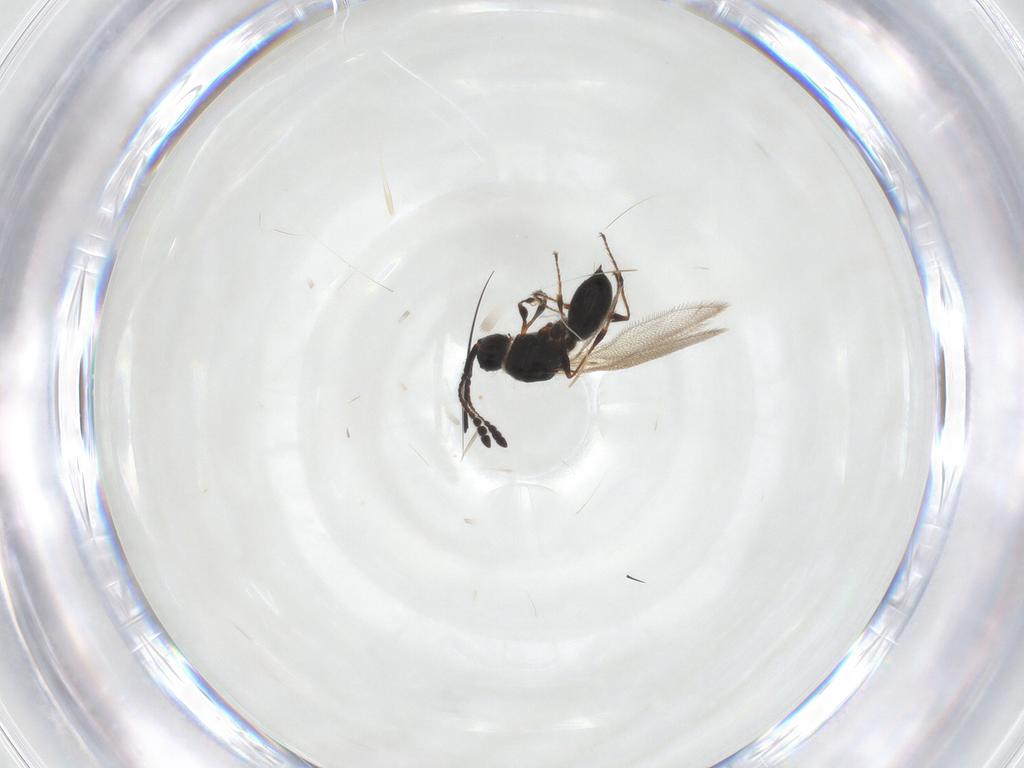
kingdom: Animalia
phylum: Arthropoda
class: Insecta
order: Hymenoptera
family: Diapriidae
